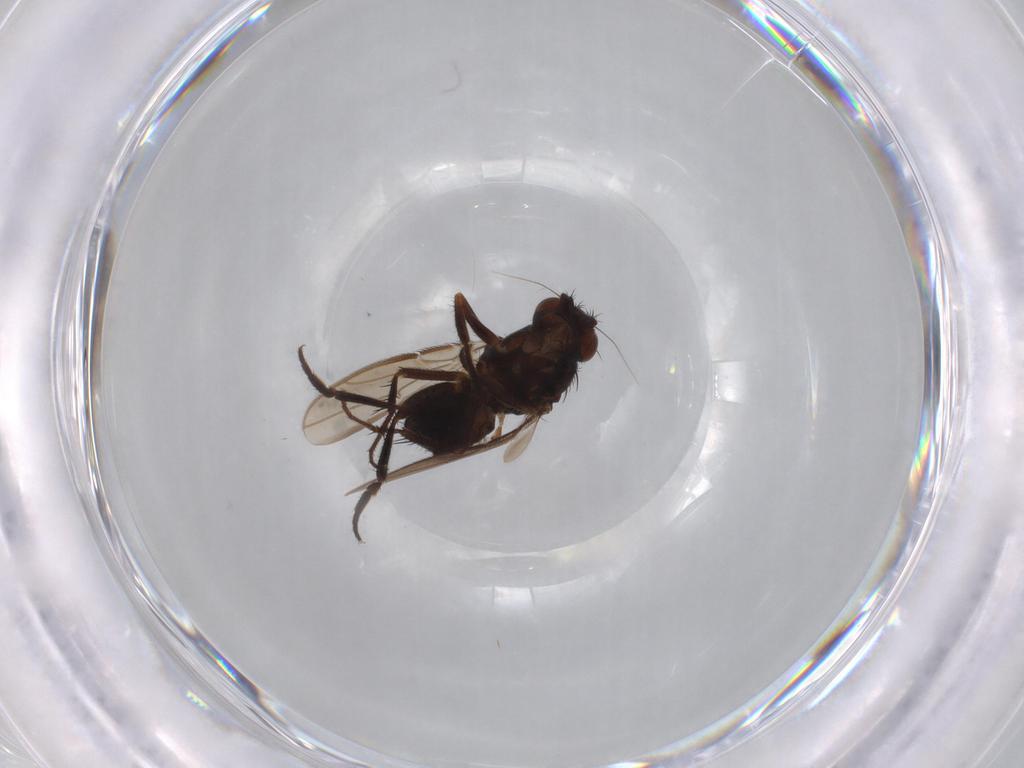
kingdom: Animalia
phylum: Arthropoda
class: Insecta
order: Diptera
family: Sphaeroceridae
